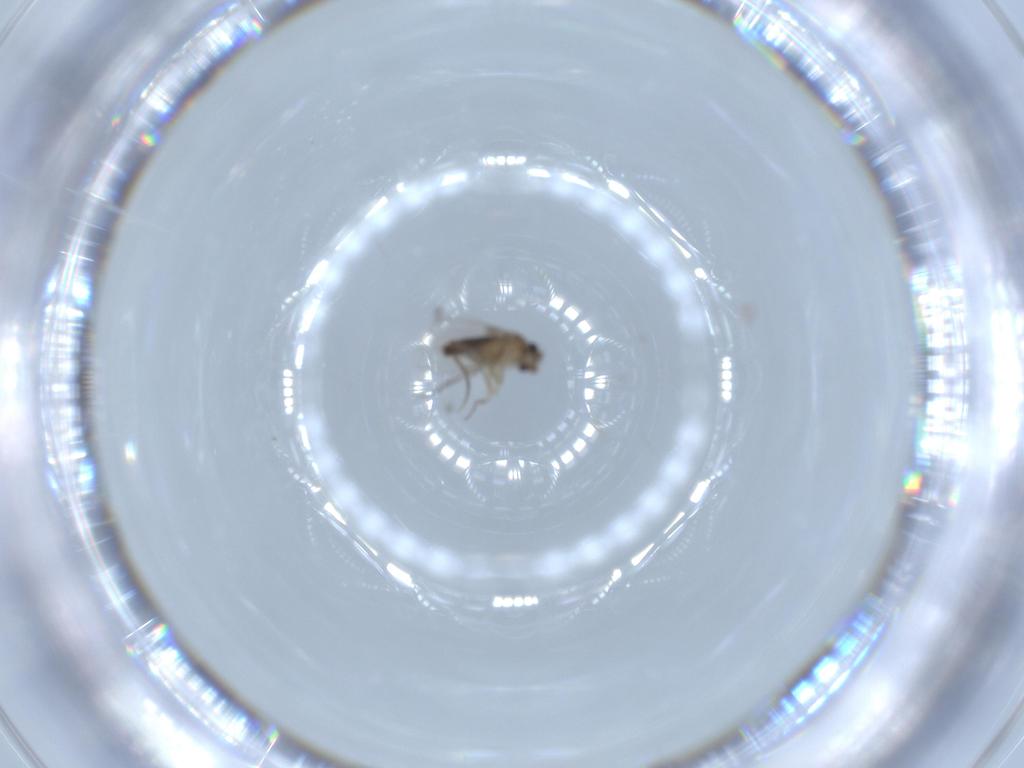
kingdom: Animalia
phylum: Arthropoda
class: Insecta
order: Diptera
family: Phoridae
